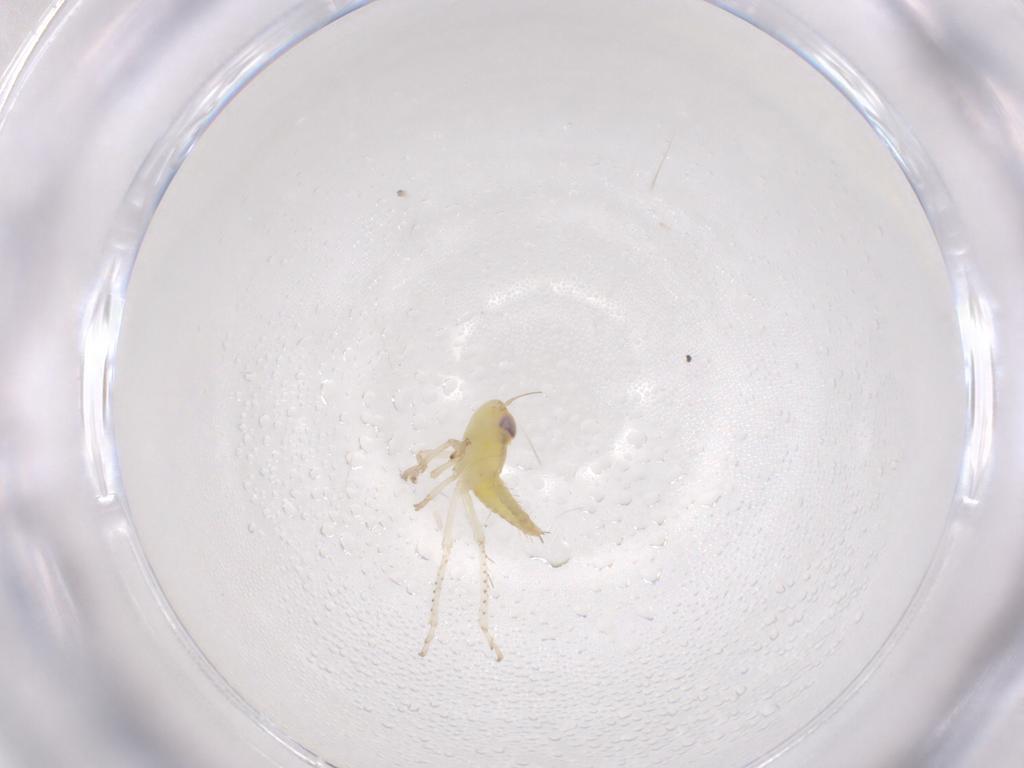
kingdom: Animalia
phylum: Arthropoda
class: Insecta
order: Hemiptera
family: Cicadellidae
